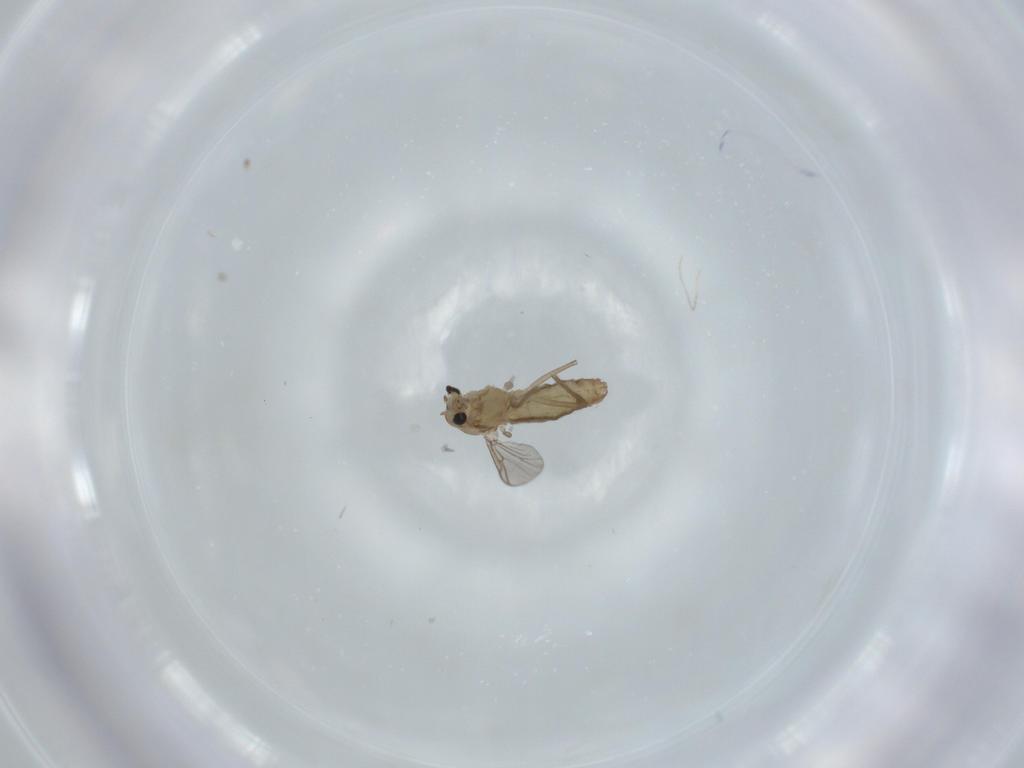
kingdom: Animalia
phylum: Arthropoda
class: Insecta
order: Diptera
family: Chironomidae
